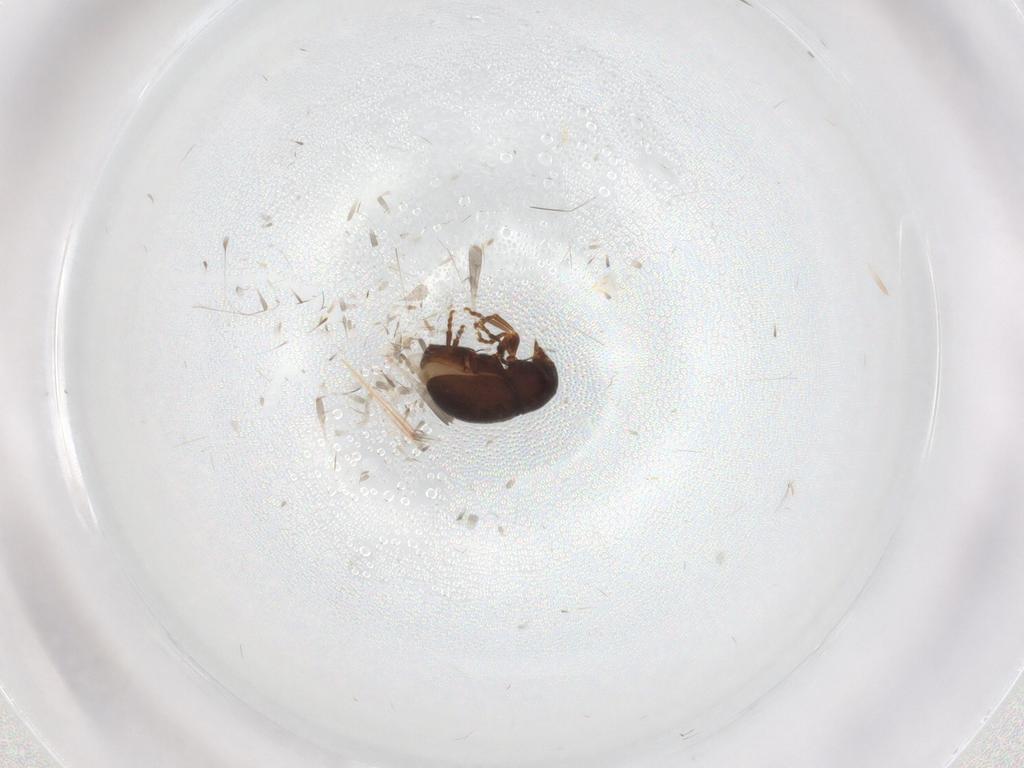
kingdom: Animalia
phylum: Arthropoda
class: Insecta
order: Coleoptera
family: Anthribidae
